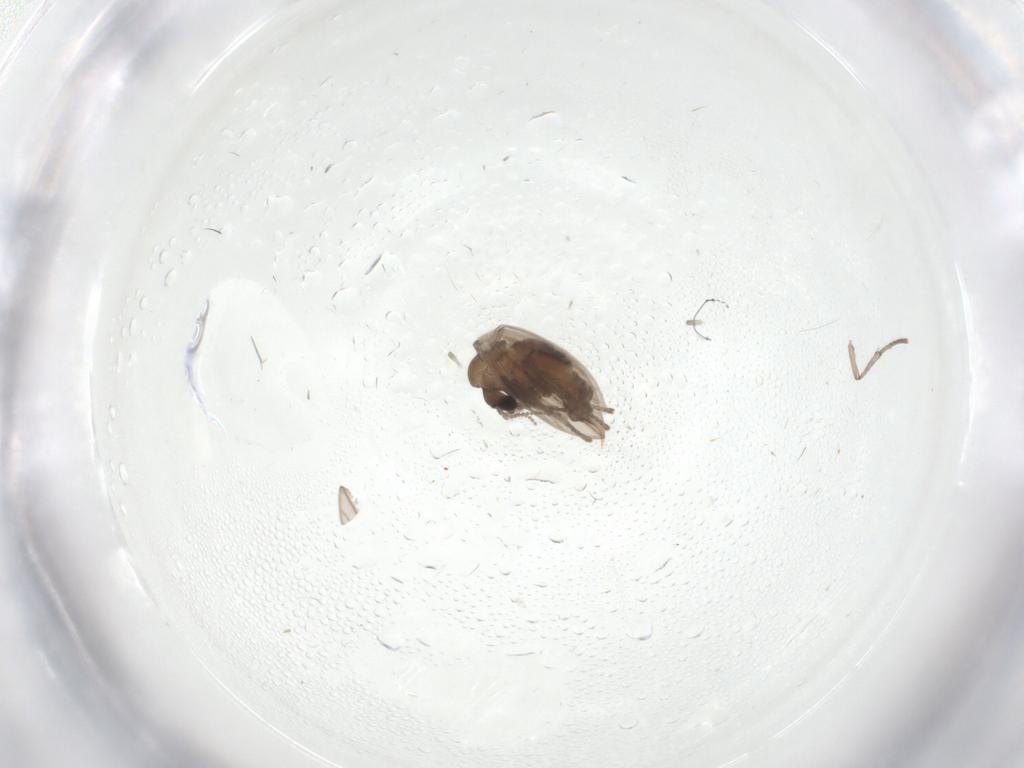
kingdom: Animalia
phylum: Arthropoda
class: Insecta
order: Diptera
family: Psychodidae
